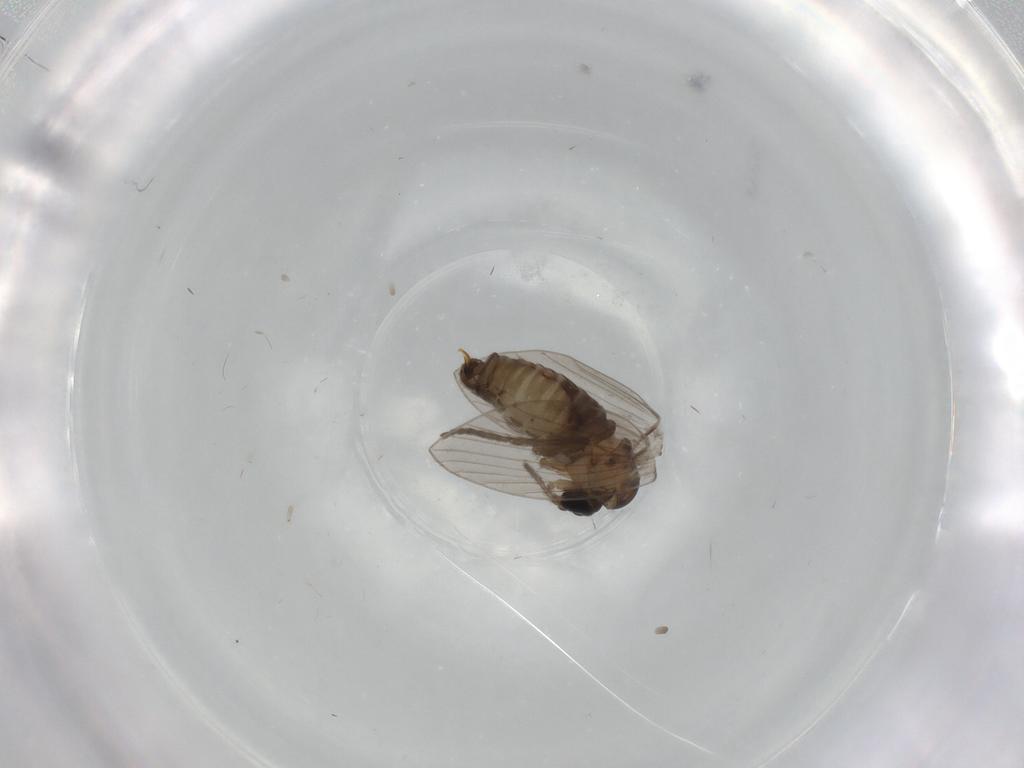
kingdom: Animalia
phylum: Arthropoda
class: Insecta
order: Diptera
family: Psychodidae
